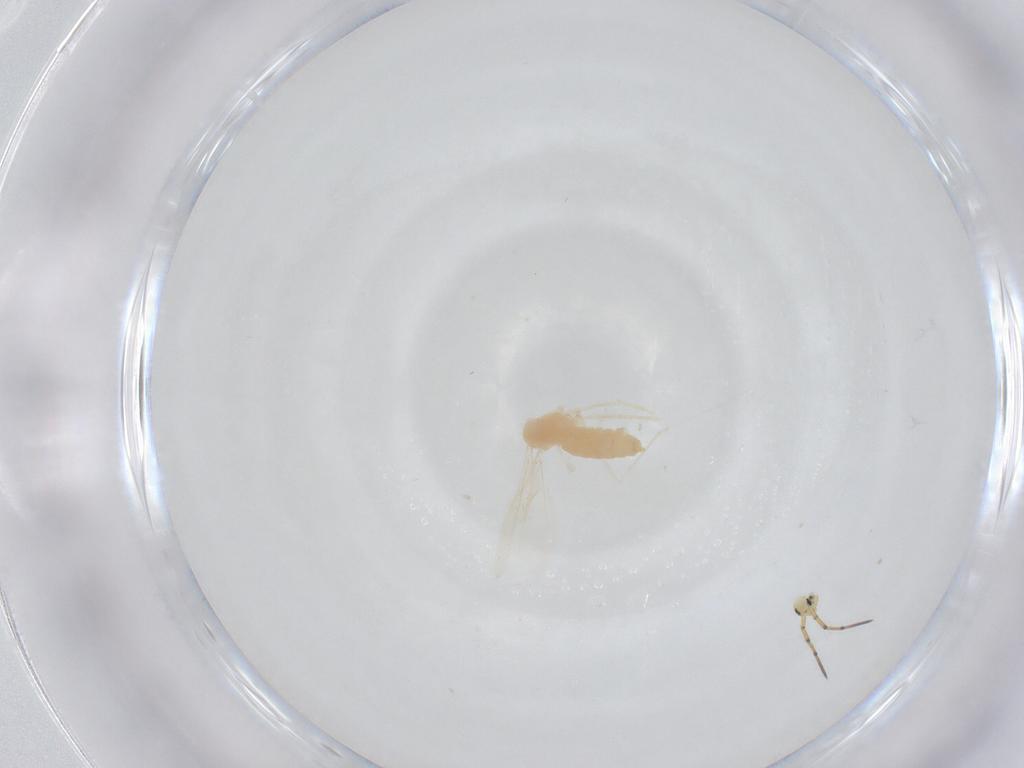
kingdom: Animalia
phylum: Arthropoda
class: Insecta
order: Diptera
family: Cecidomyiidae
